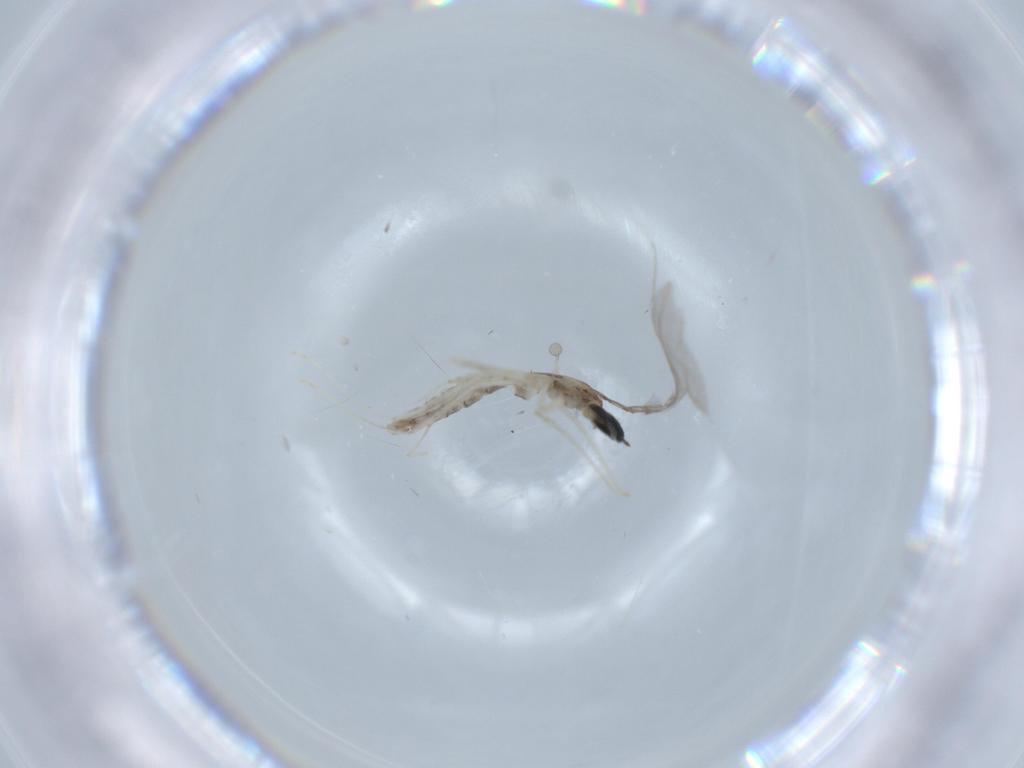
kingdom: Animalia
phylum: Arthropoda
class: Insecta
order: Diptera
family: Cecidomyiidae
